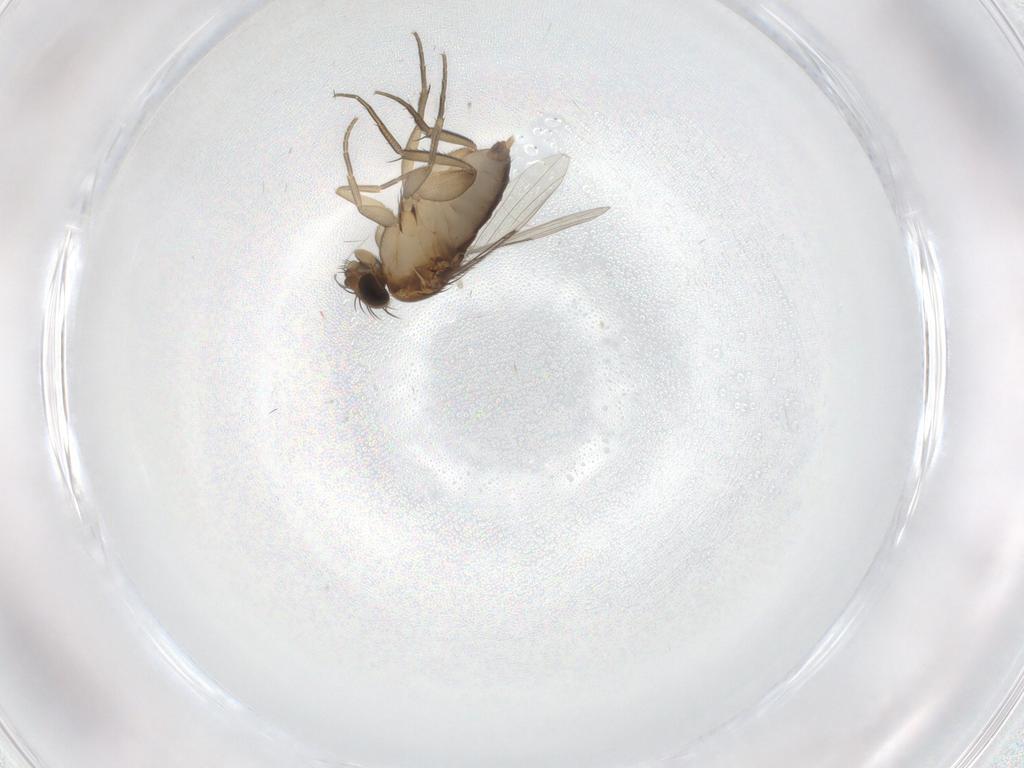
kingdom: Animalia
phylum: Arthropoda
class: Insecta
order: Diptera
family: Phoridae
